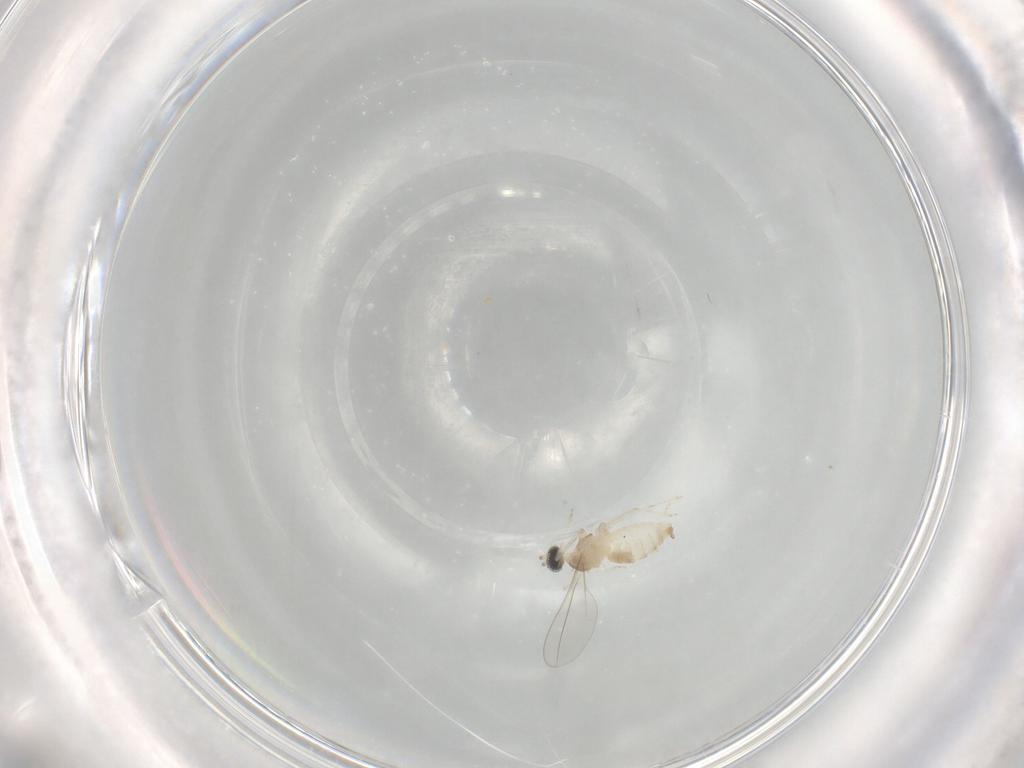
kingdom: Animalia
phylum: Arthropoda
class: Insecta
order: Diptera
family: Cecidomyiidae
